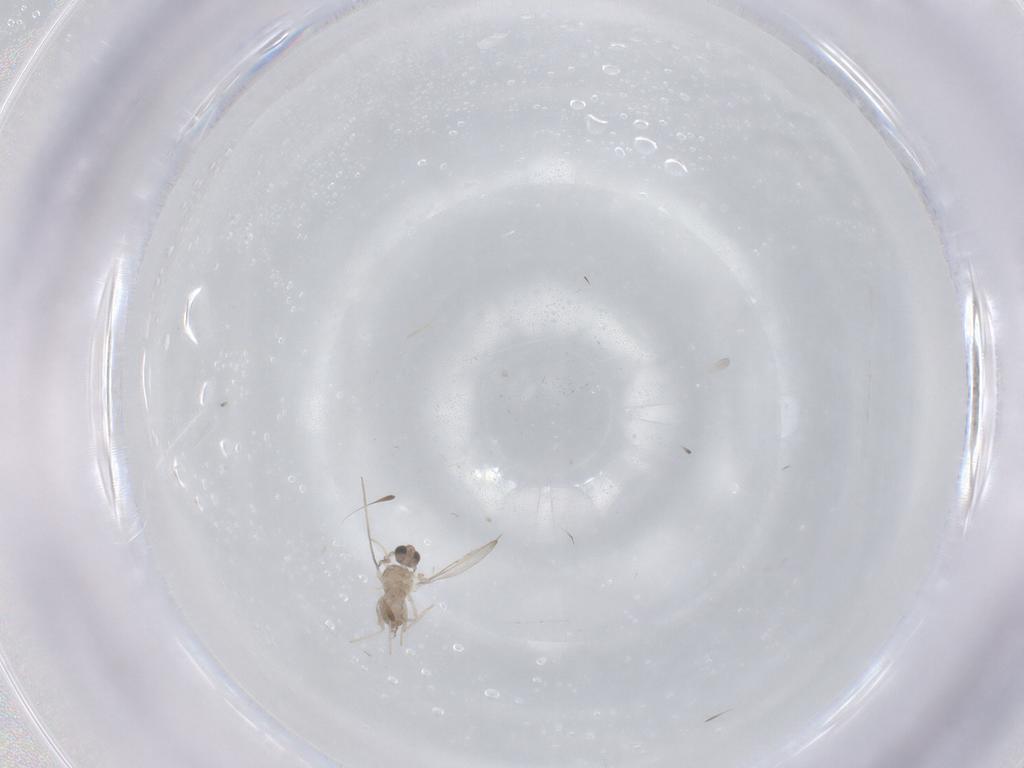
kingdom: Animalia
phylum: Arthropoda
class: Insecta
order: Diptera
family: Cecidomyiidae
